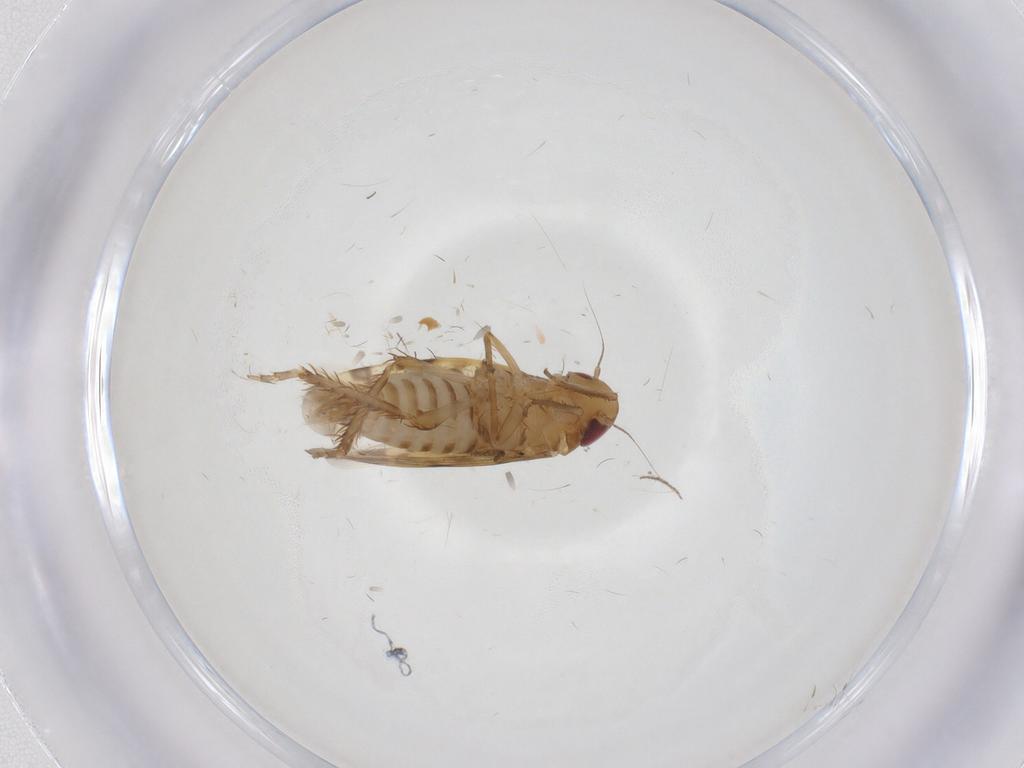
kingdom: Animalia
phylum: Arthropoda
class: Insecta
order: Hemiptera
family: Cicadellidae
